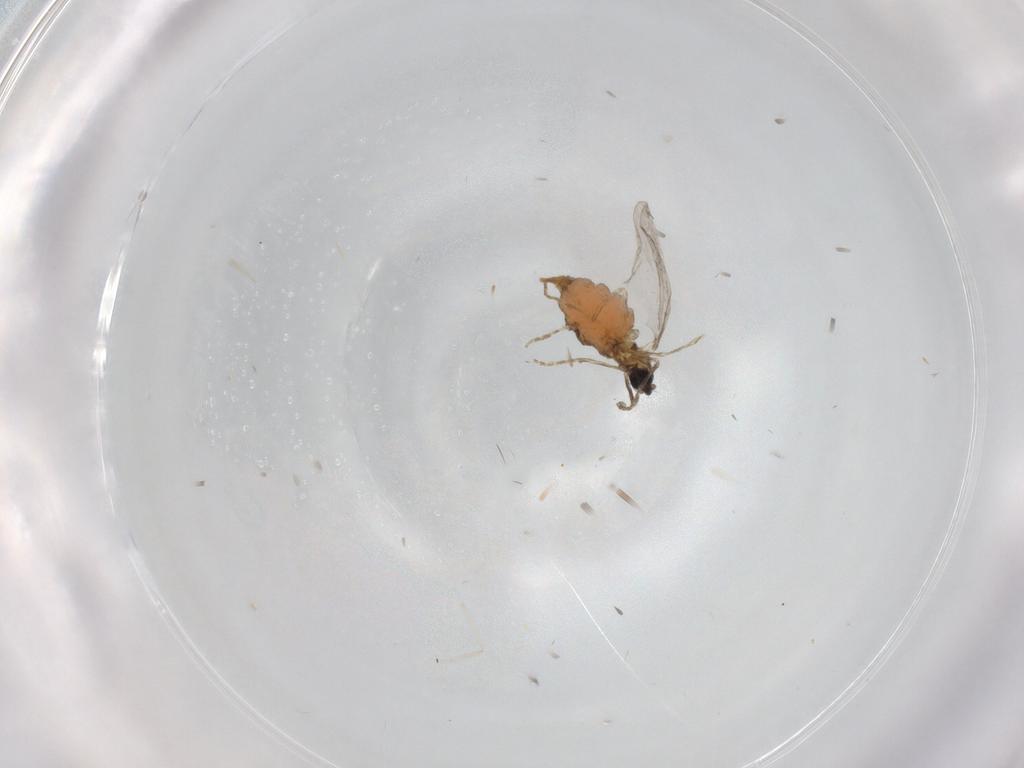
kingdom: Animalia
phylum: Arthropoda
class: Insecta
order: Diptera
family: Cecidomyiidae
